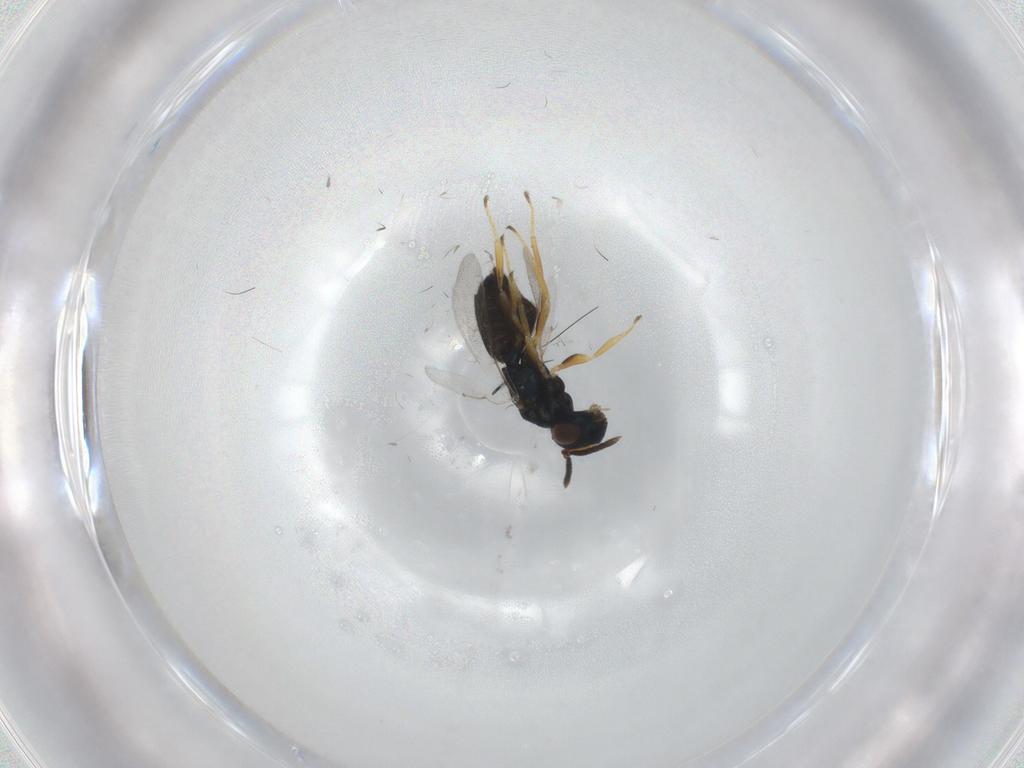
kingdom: Animalia
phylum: Arthropoda
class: Insecta
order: Hymenoptera
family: Pteromalidae
